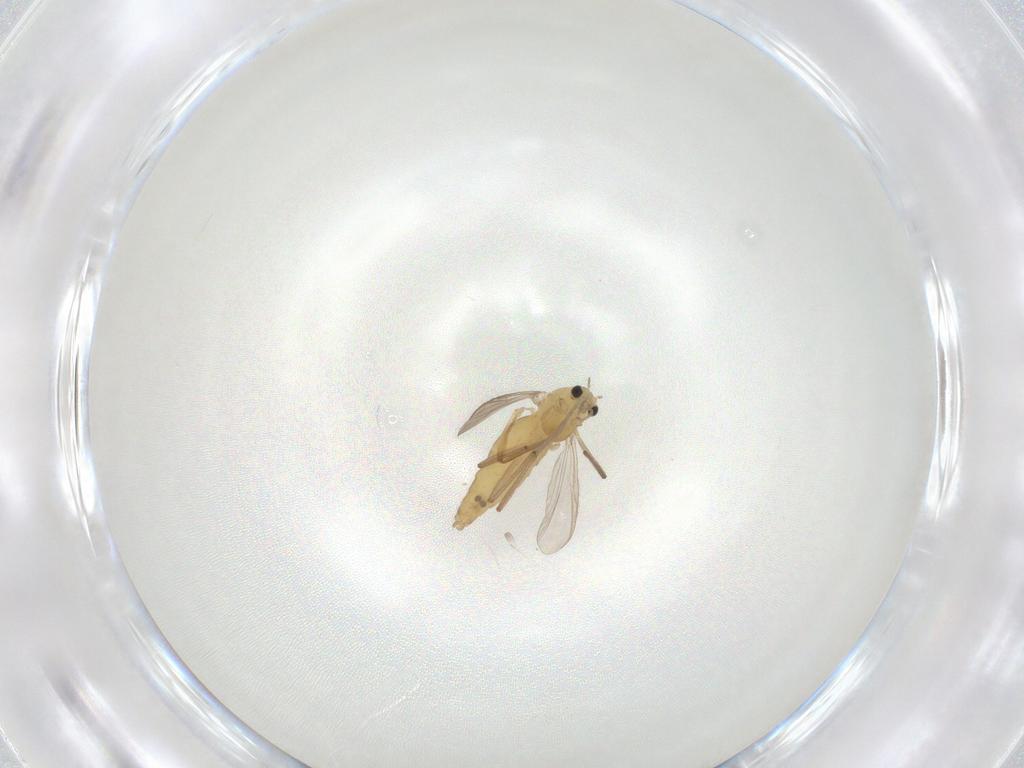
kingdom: Animalia
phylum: Arthropoda
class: Insecta
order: Diptera
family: Chironomidae
